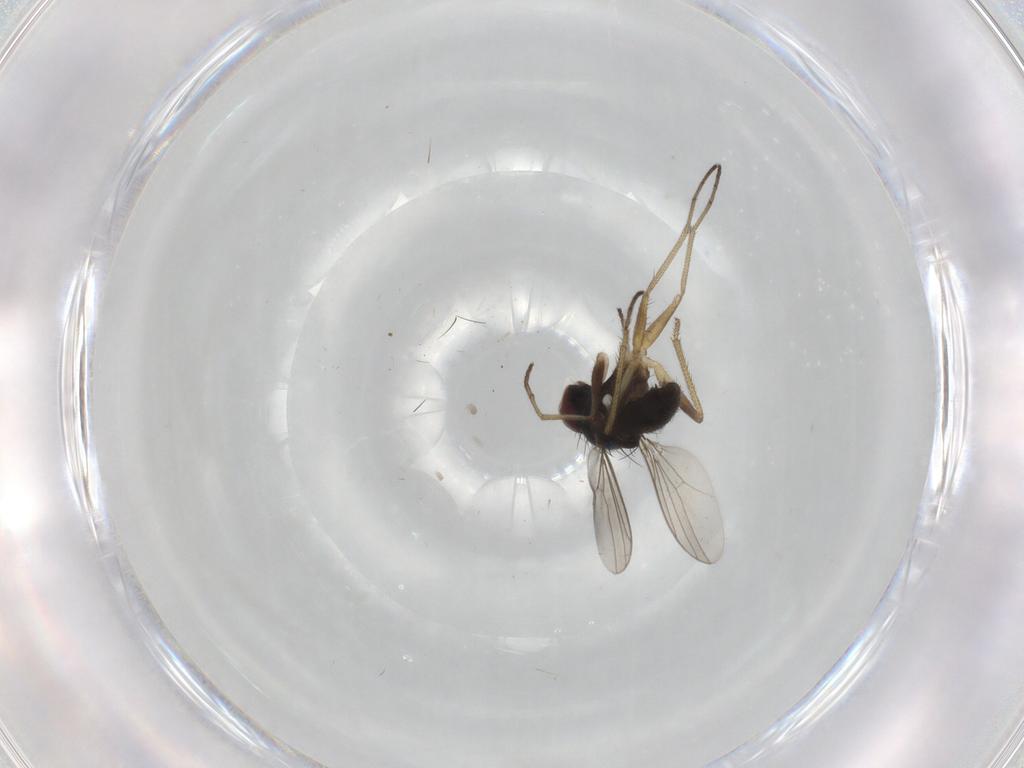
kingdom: Animalia
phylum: Arthropoda
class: Insecta
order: Diptera
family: Dolichopodidae
